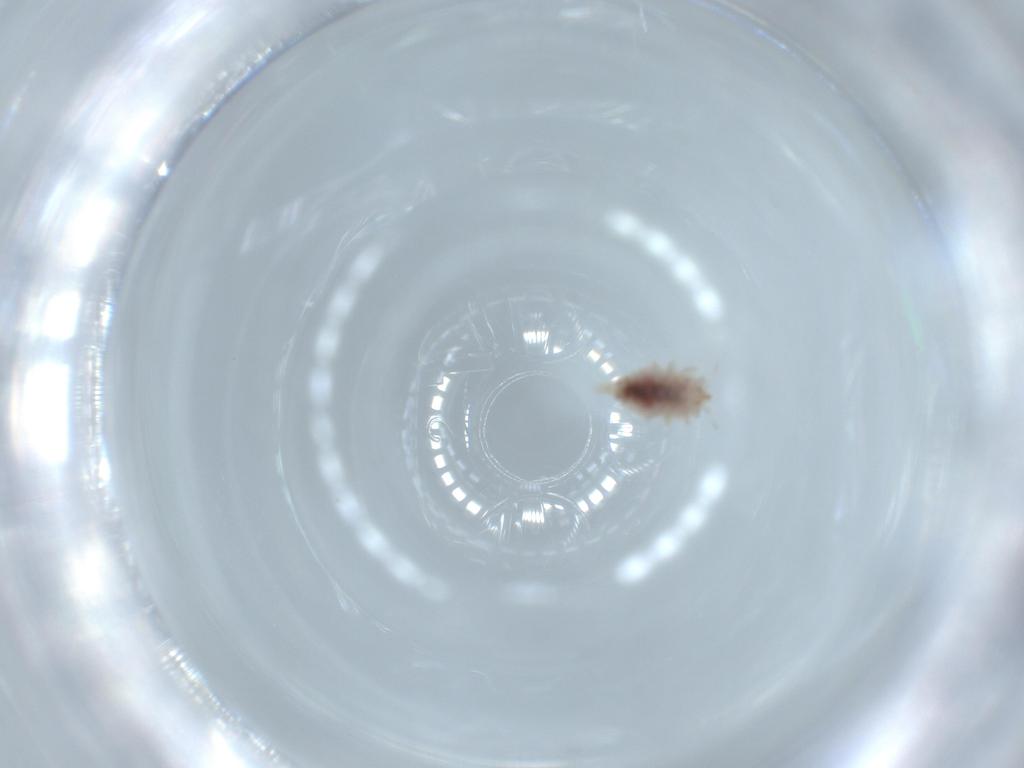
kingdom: Animalia
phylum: Arthropoda
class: Insecta
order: Neuroptera
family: Coniopterygidae
